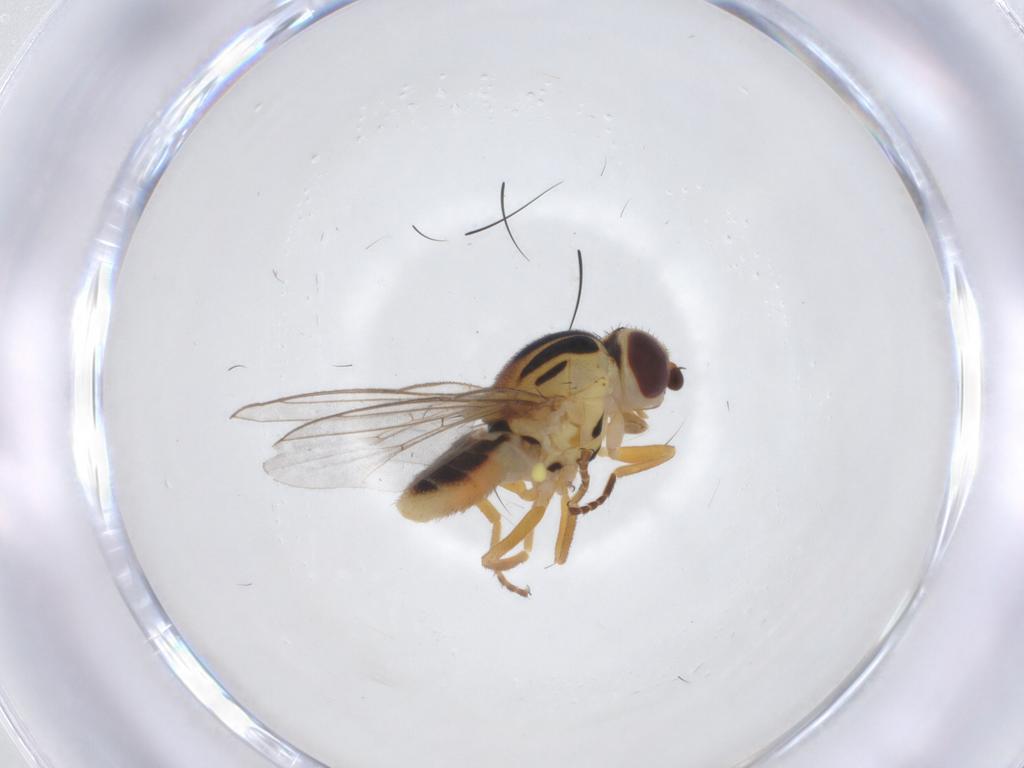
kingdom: Animalia
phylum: Arthropoda
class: Insecta
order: Diptera
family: Chloropidae
